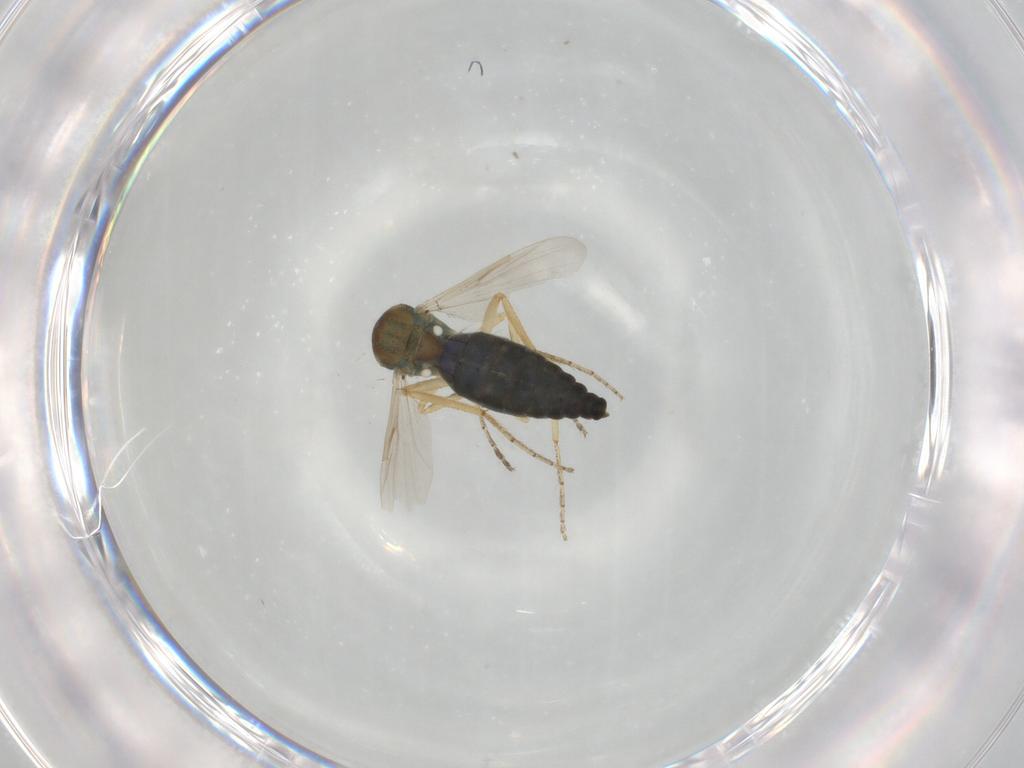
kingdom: Animalia
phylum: Arthropoda
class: Insecta
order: Diptera
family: Ceratopogonidae
